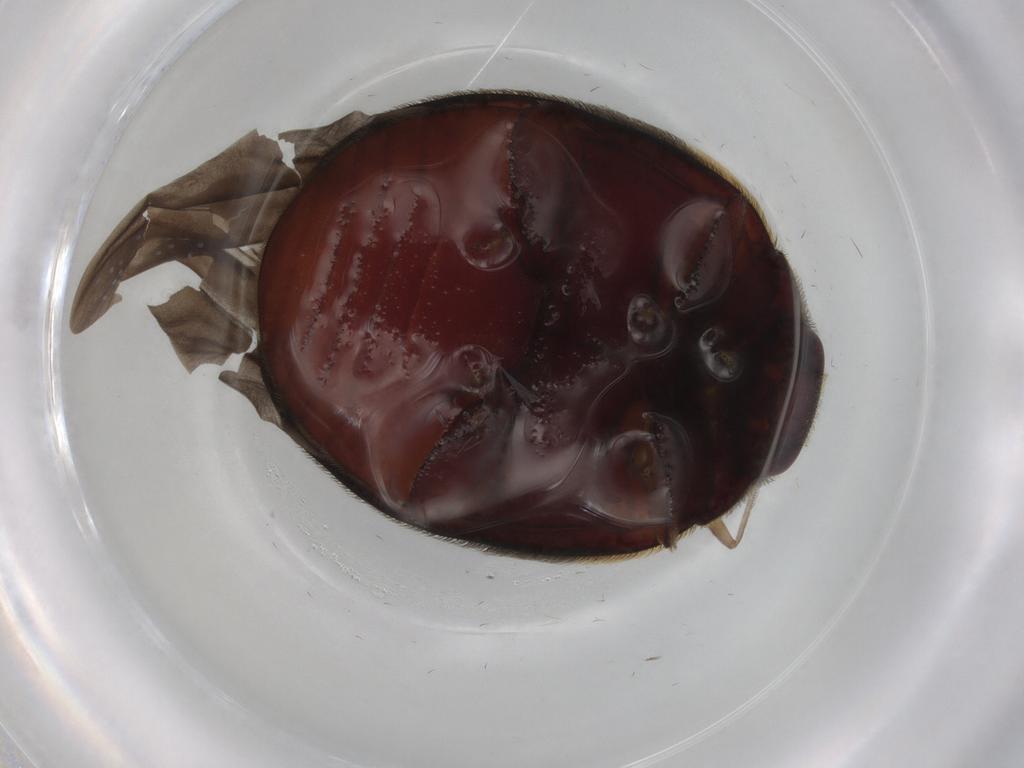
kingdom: Animalia
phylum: Arthropoda
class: Insecta
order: Coleoptera
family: Coccinellidae
